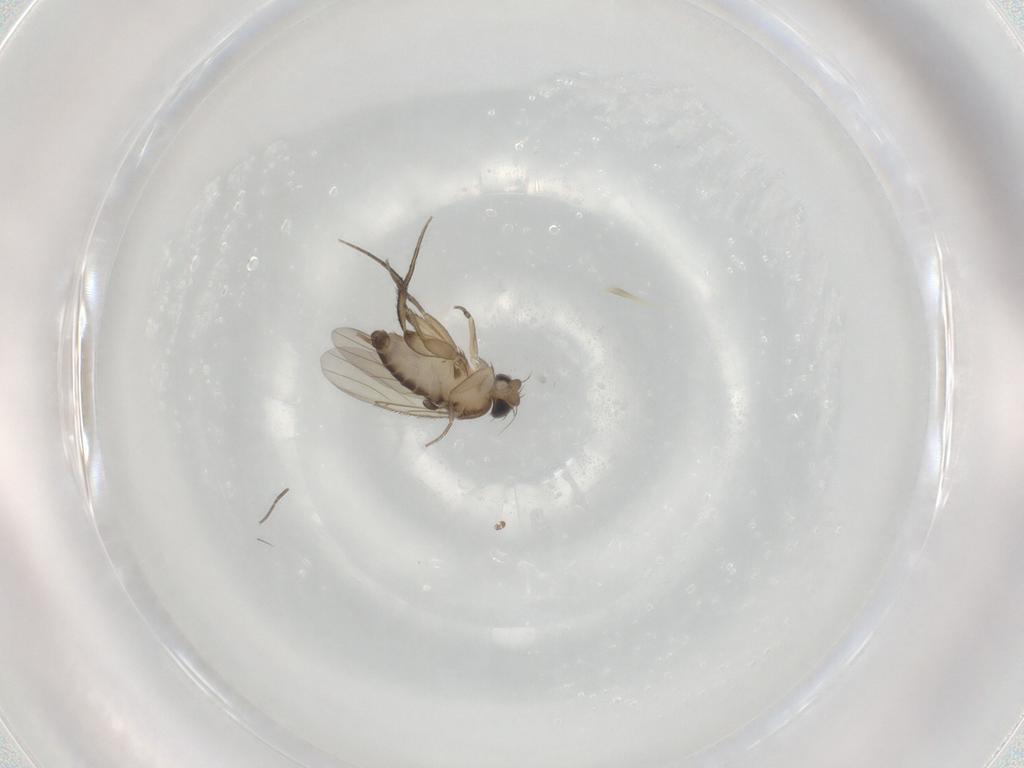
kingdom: Animalia
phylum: Arthropoda
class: Insecta
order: Diptera
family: Phoridae
